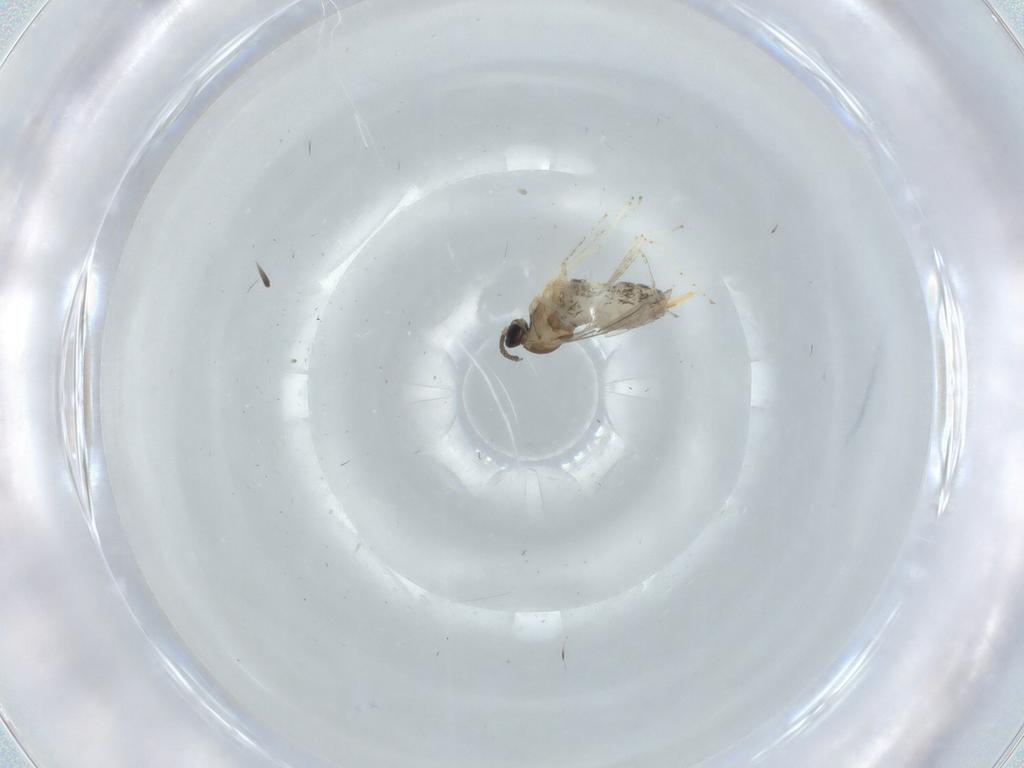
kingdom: Animalia
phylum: Arthropoda
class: Insecta
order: Diptera
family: Cecidomyiidae
